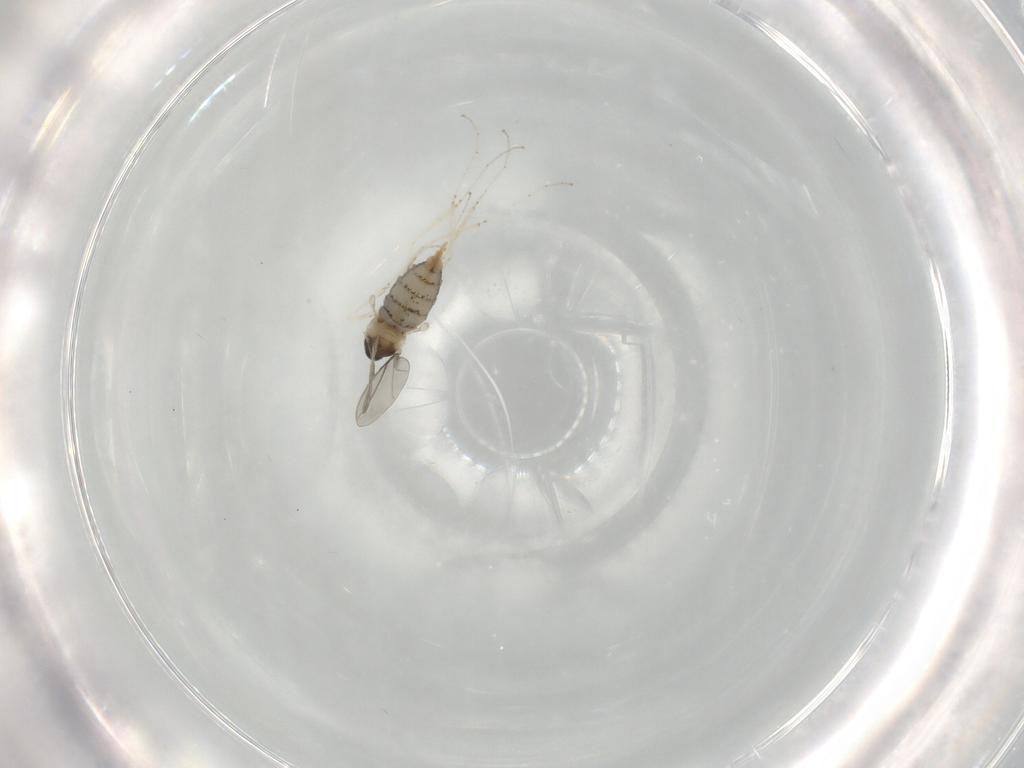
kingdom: Animalia
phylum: Arthropoda
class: Insecta
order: Diptera
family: Cecidomyiidae
